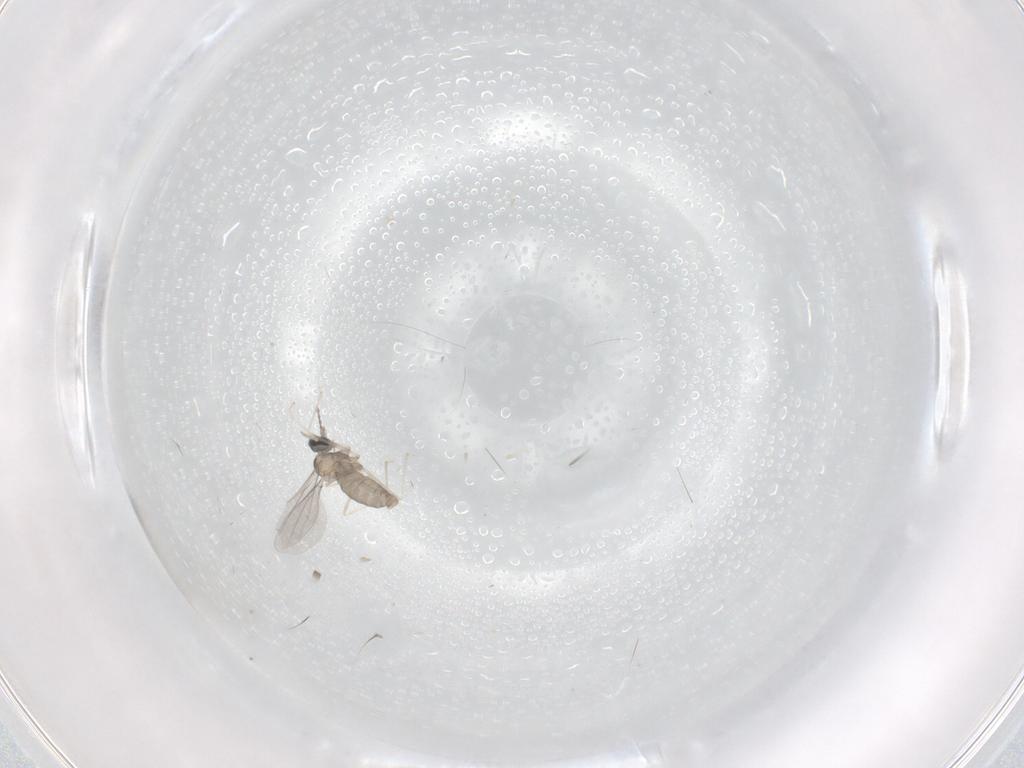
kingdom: Animalia
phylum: Arthropoda
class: Insecta
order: Diptera
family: Cecidomyiidae
